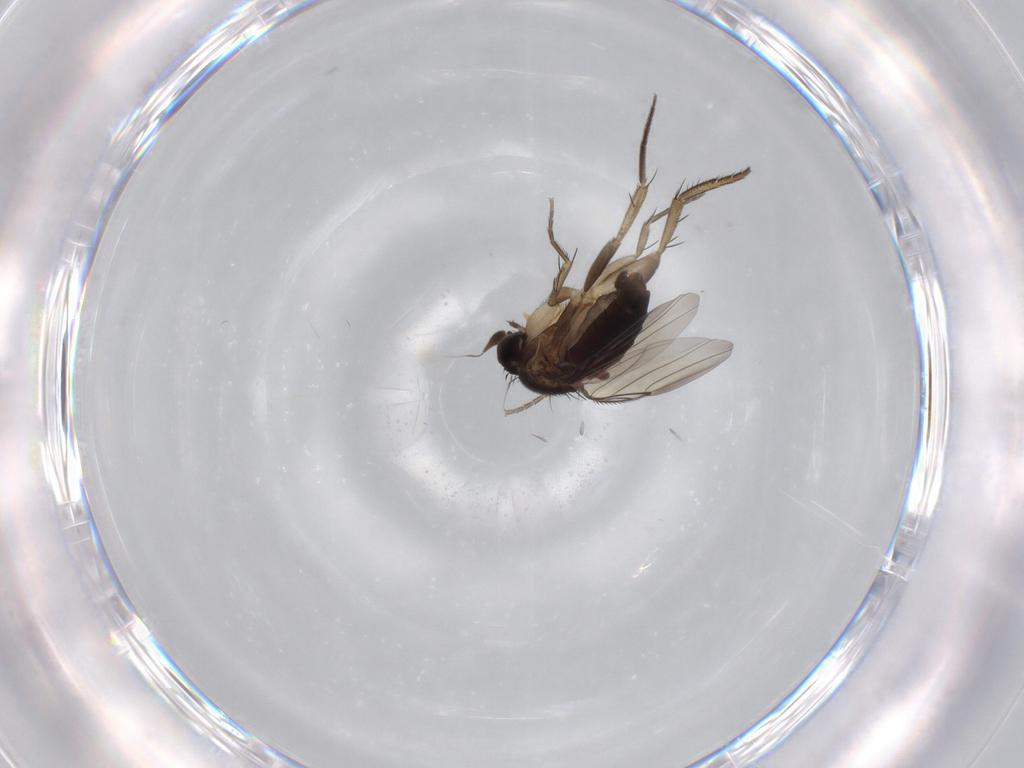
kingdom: Animalia
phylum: Arthropoda
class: Insecta
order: Diptera
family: Phoridae
